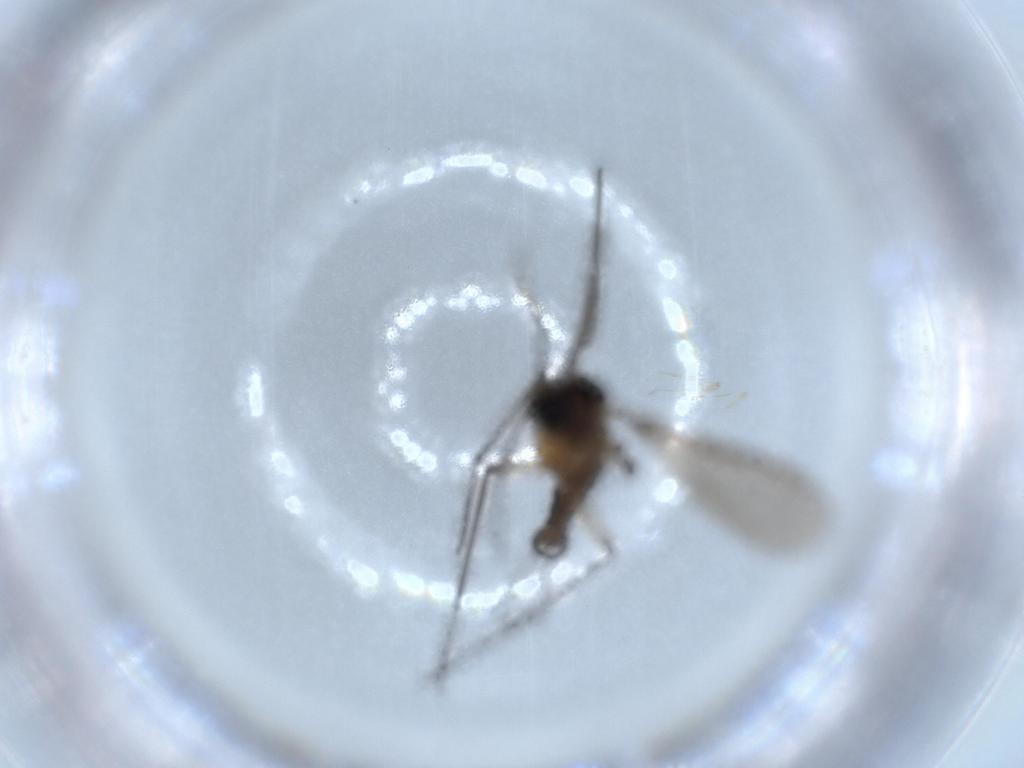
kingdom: Animalia
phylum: Arthropoda
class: Insecta
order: Diptera
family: Sciaridae
